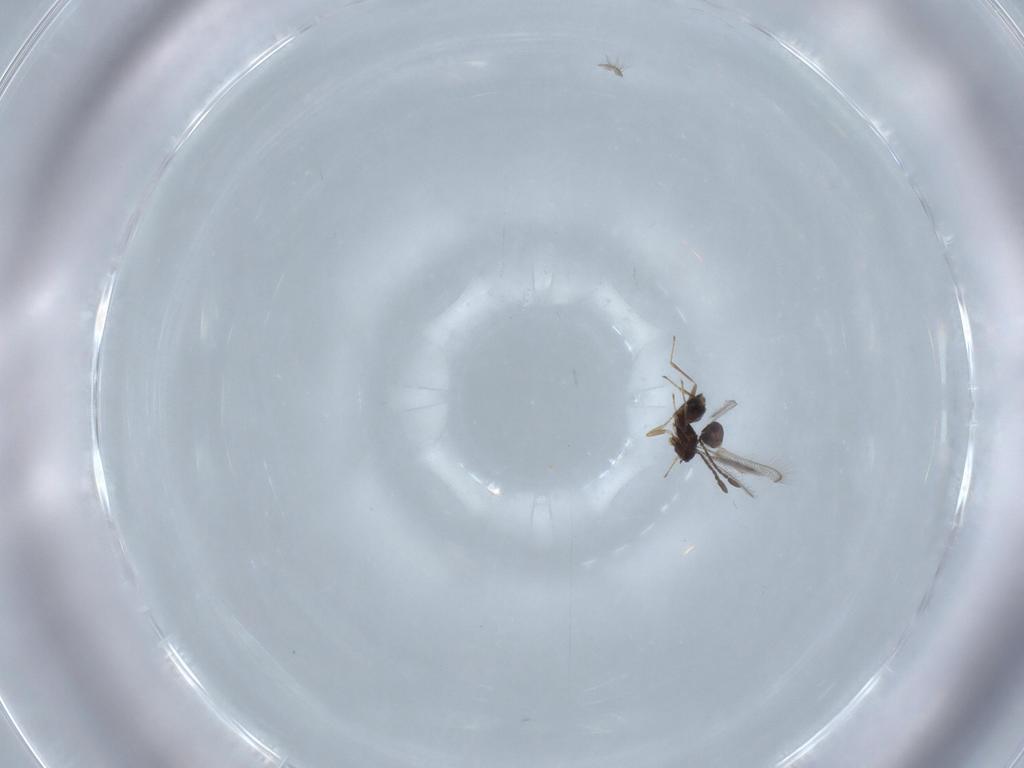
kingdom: Animalia
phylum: Arthropoda
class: Insecta
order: Hymenoptera
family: Mymaridae
